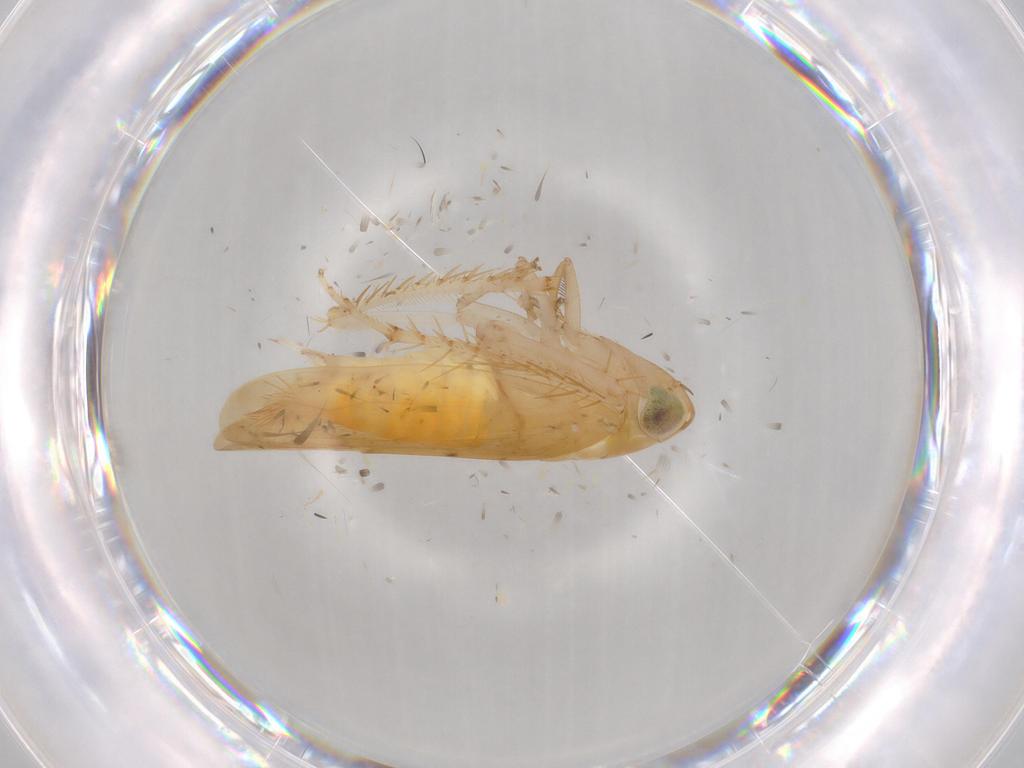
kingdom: Animalia
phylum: Arthropoda
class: Insecta
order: Hemiptera
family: Cicadellidae
